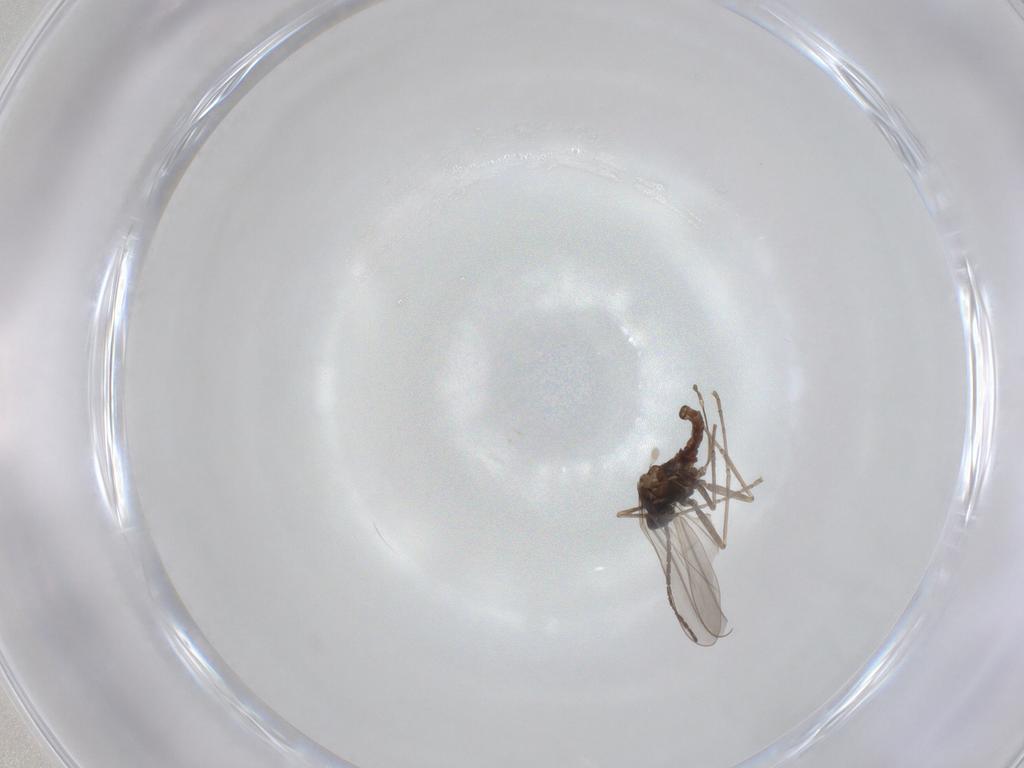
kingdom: Animalia
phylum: Arthropoda
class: Insecta
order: Diptera
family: Cecidomyiidae
